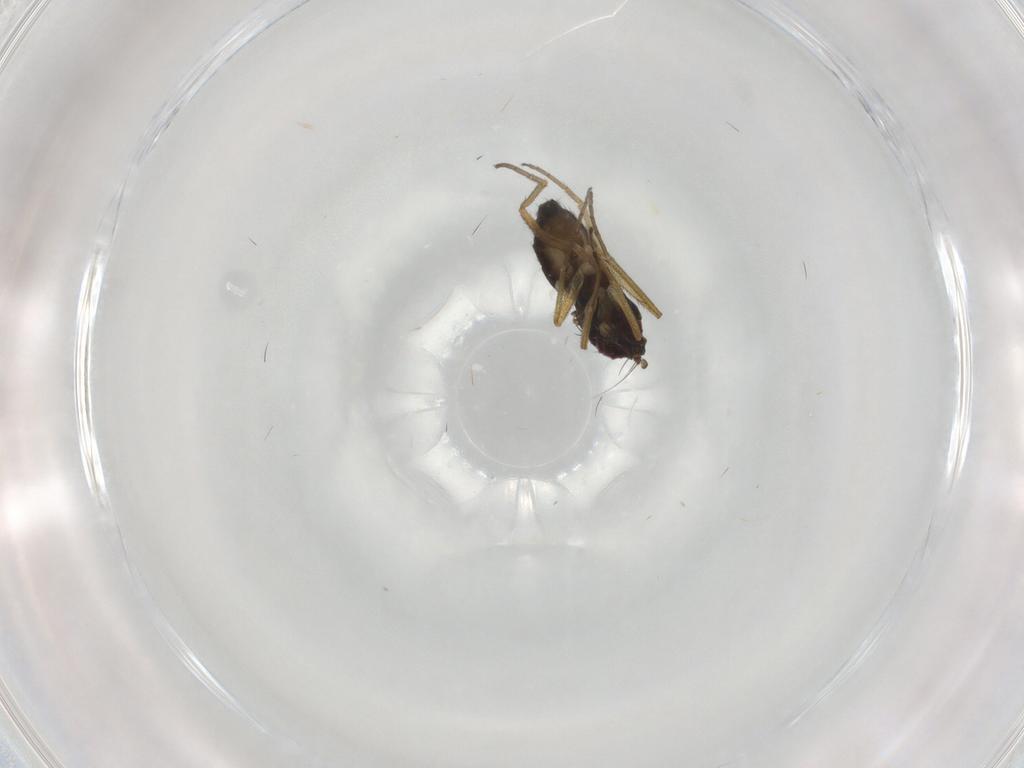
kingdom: Animalia
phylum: Arthropoda
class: Insecta
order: Diptera
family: Dolichopodidae
